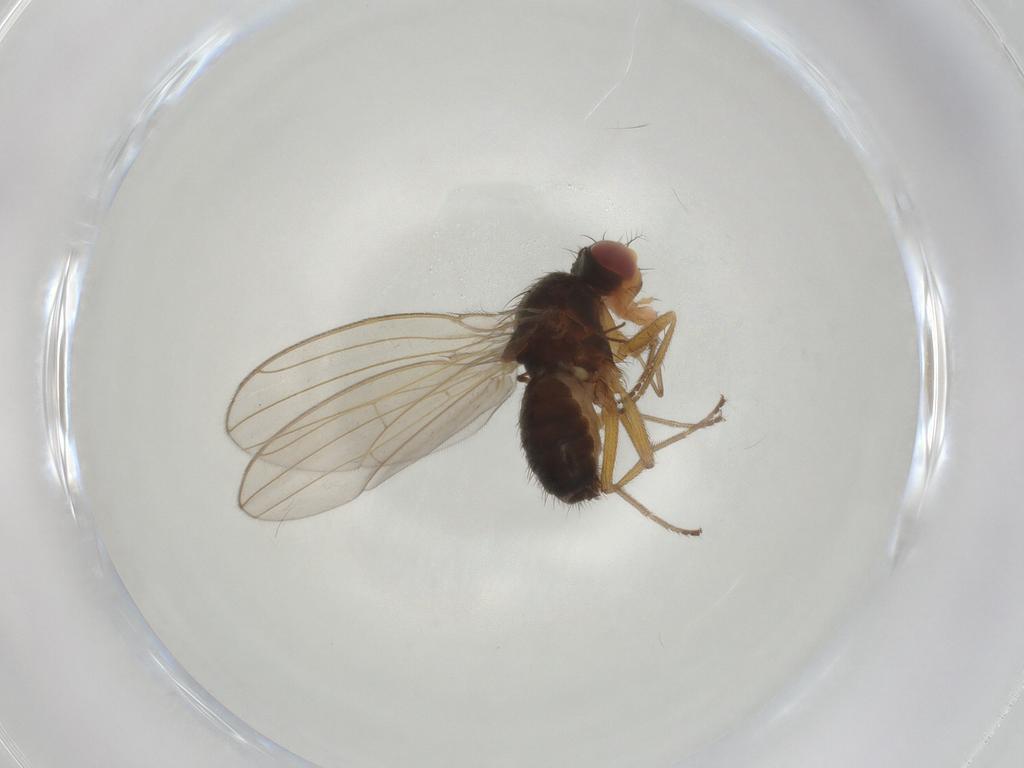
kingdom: Animalia
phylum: Arthropoda
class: Insecta
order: Diptera
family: Drosophilidae
